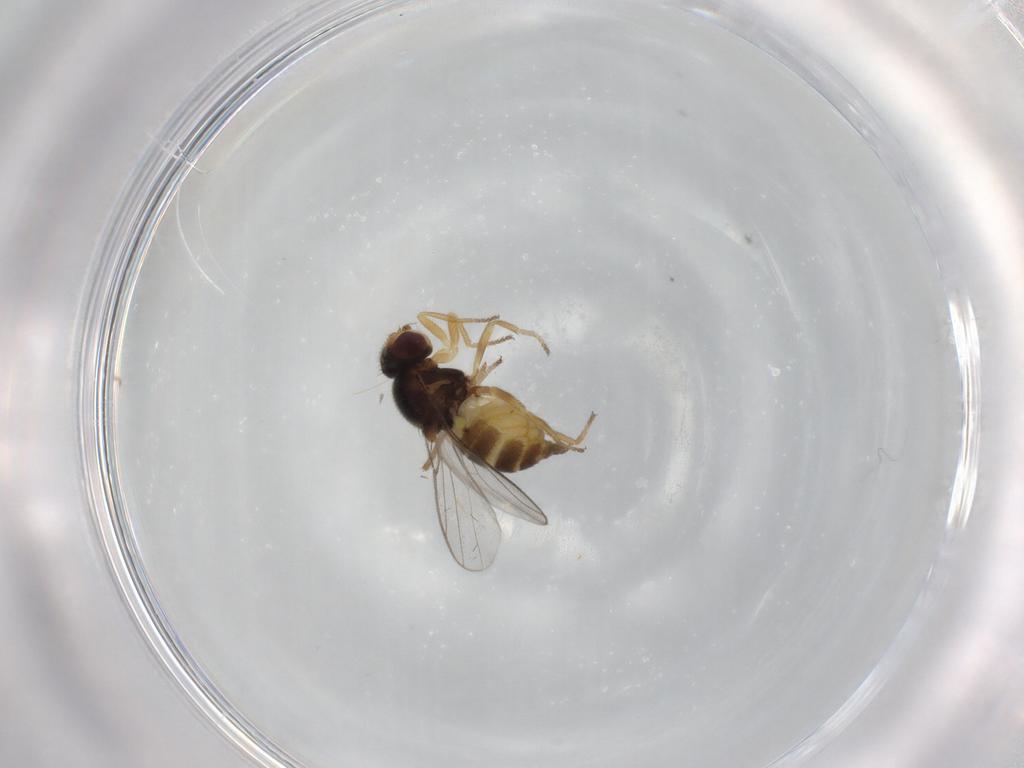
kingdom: Animalia
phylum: Arthropoda
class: Insecta
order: Diptera
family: Chloropidae
